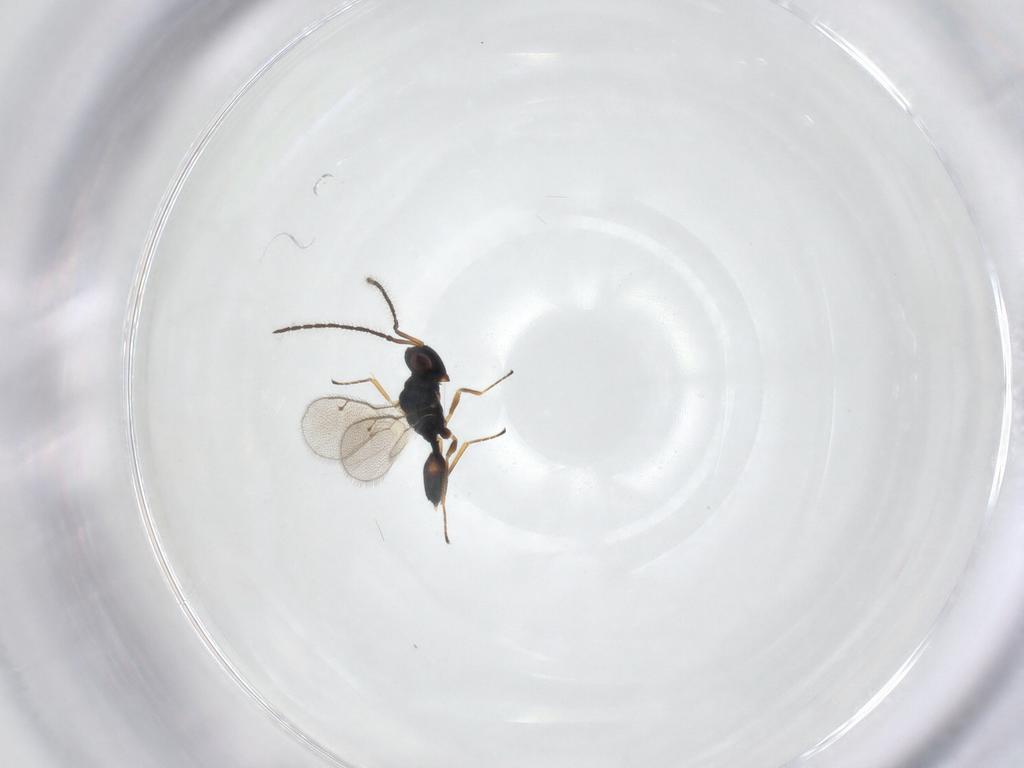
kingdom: Animalia
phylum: Arthropoda
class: Insecta
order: Hymenoptera
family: Pteromalidae
